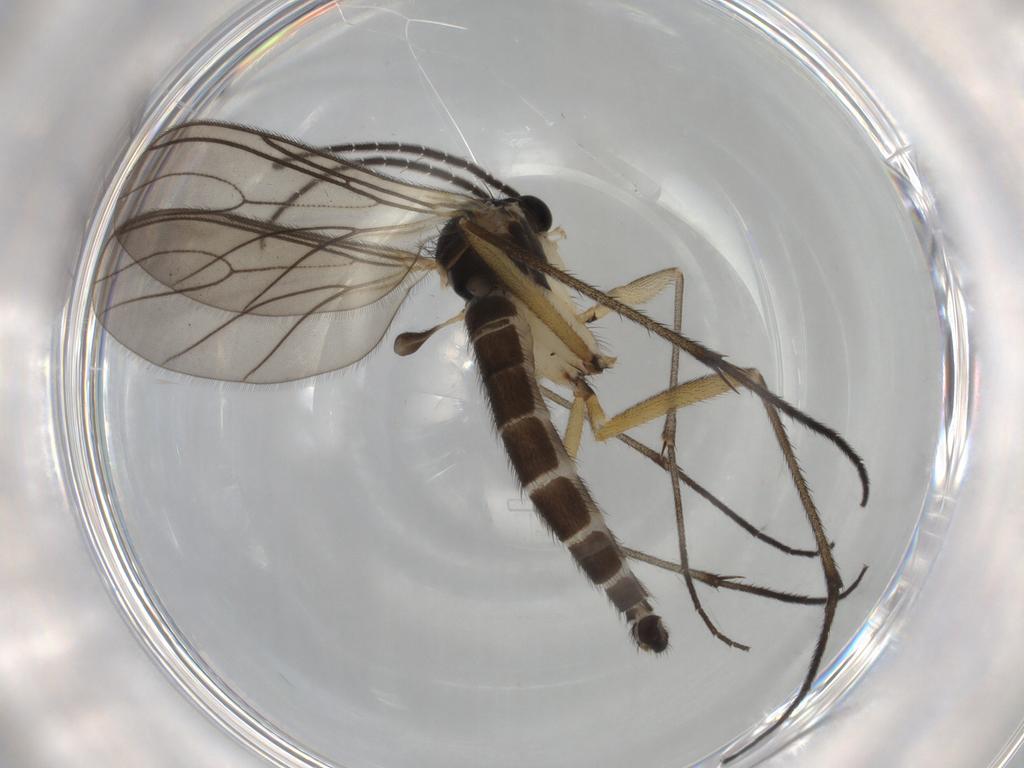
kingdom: Animalia
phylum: Arthropoda
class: Insecta
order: Diptera
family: Sciaridae
